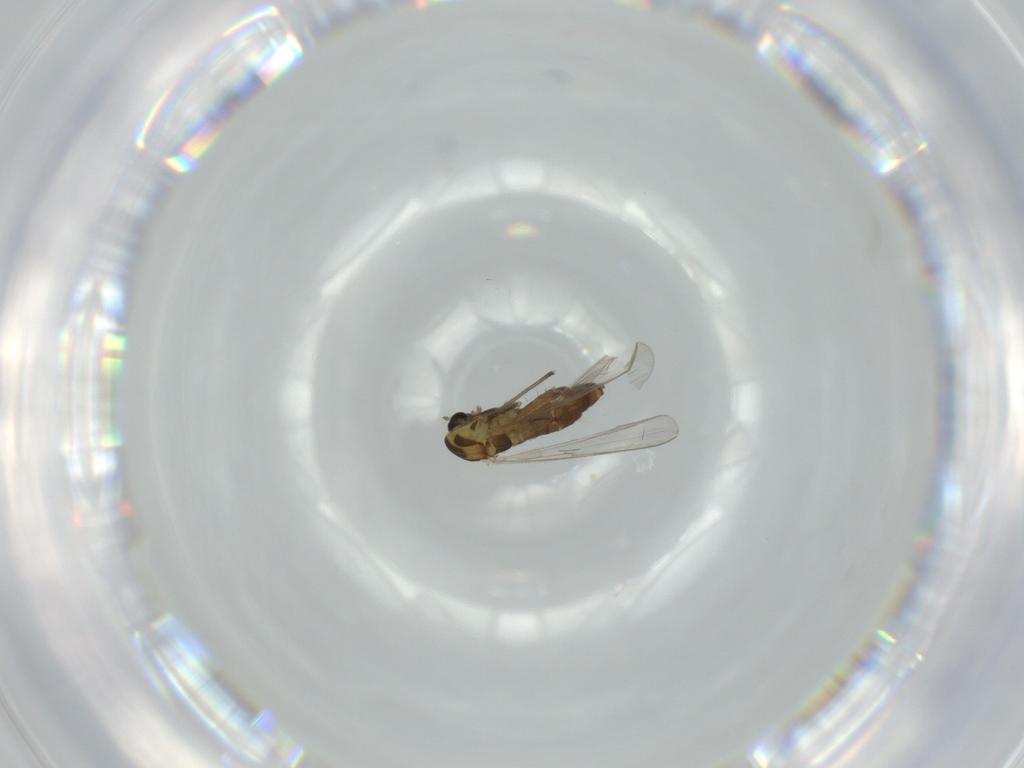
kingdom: Animalia
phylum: Arthropoda
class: Insecta
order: Diptera
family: Chironomidae
